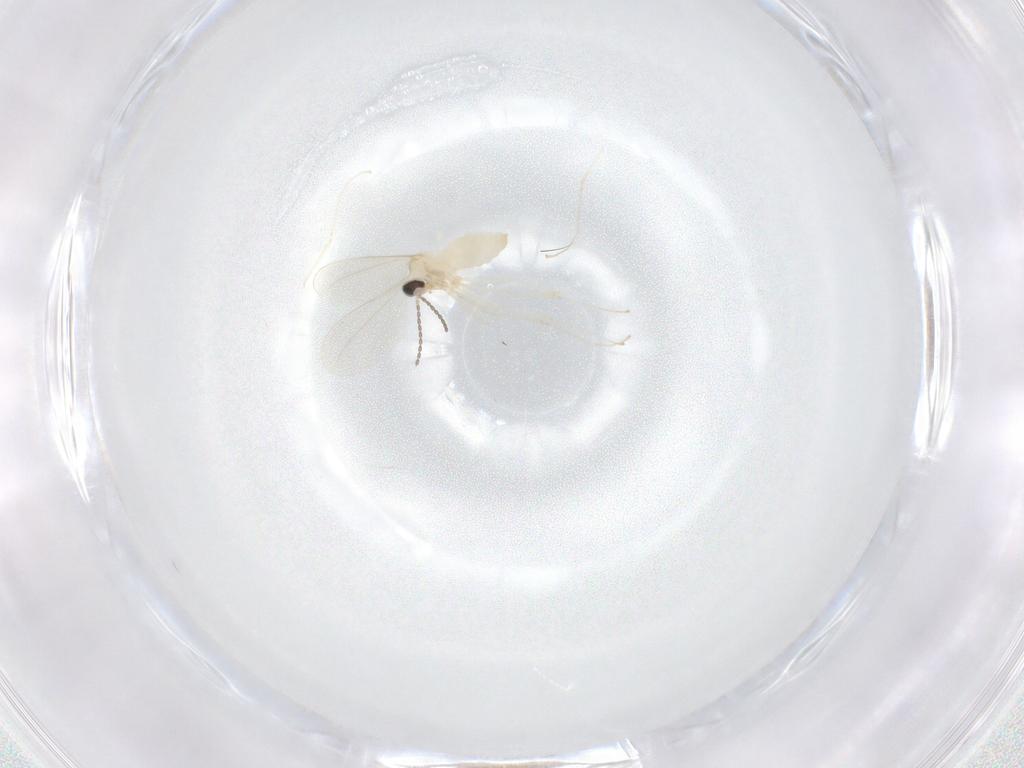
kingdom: Animalia
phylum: Arthropoda
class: Insecta
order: Diptera
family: Cecidomyiidae
